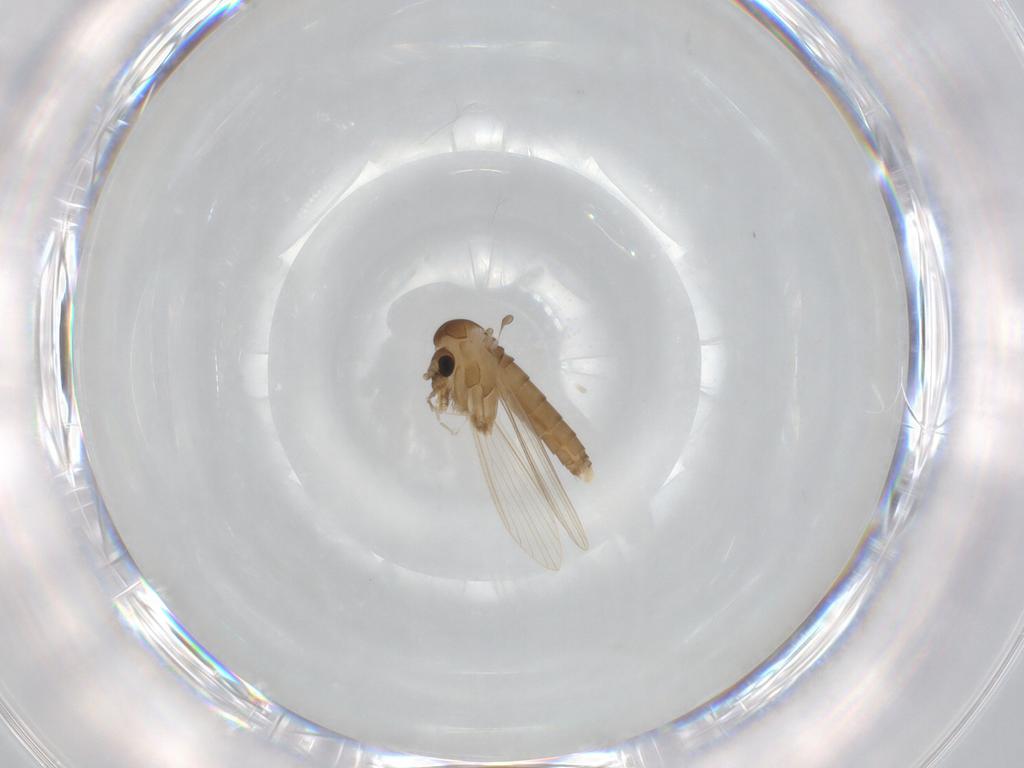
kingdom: Animalia
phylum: Arthropoda
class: Insecta
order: Diptera
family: Psychodidae
